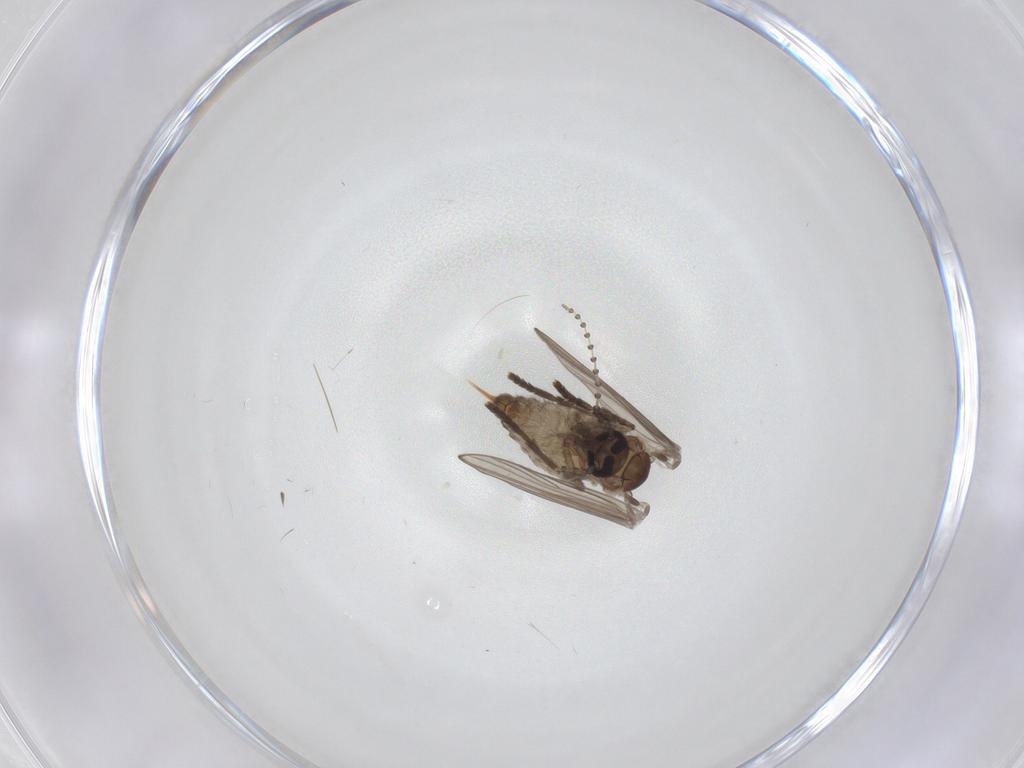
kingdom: Animalia
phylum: Arthropoda
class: Insecta
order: Diptera
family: Psychodidae
